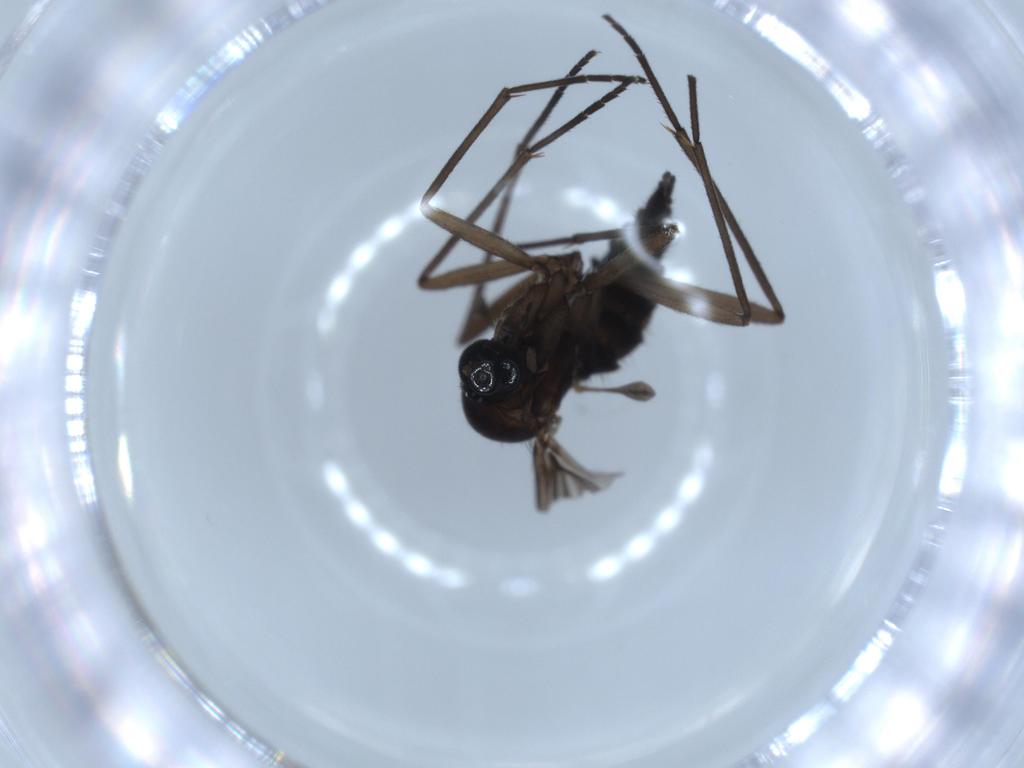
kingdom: Animalia
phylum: Arthropoda
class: Insecta
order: Diptera
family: Sciaridae
